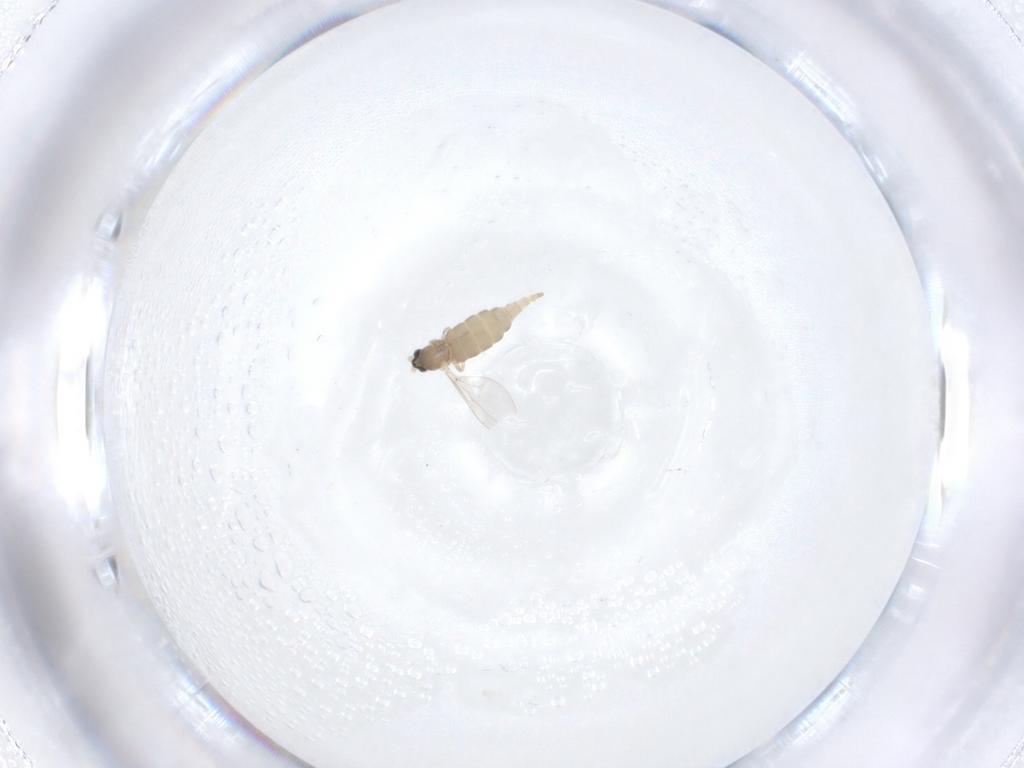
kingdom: Animalia
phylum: Arthropoda
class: Insecta
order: Diptera
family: Cecidomyiidae
